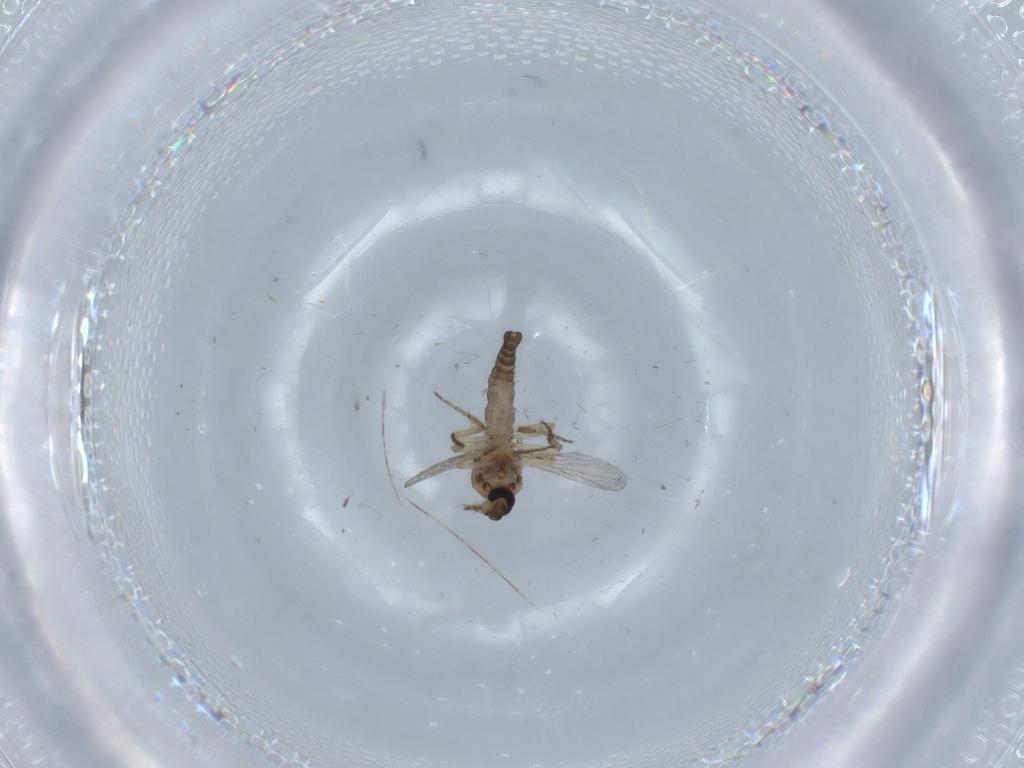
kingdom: Animalia
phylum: Arthropoda
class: Insecta
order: Diptera
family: Ceratopogonidae
